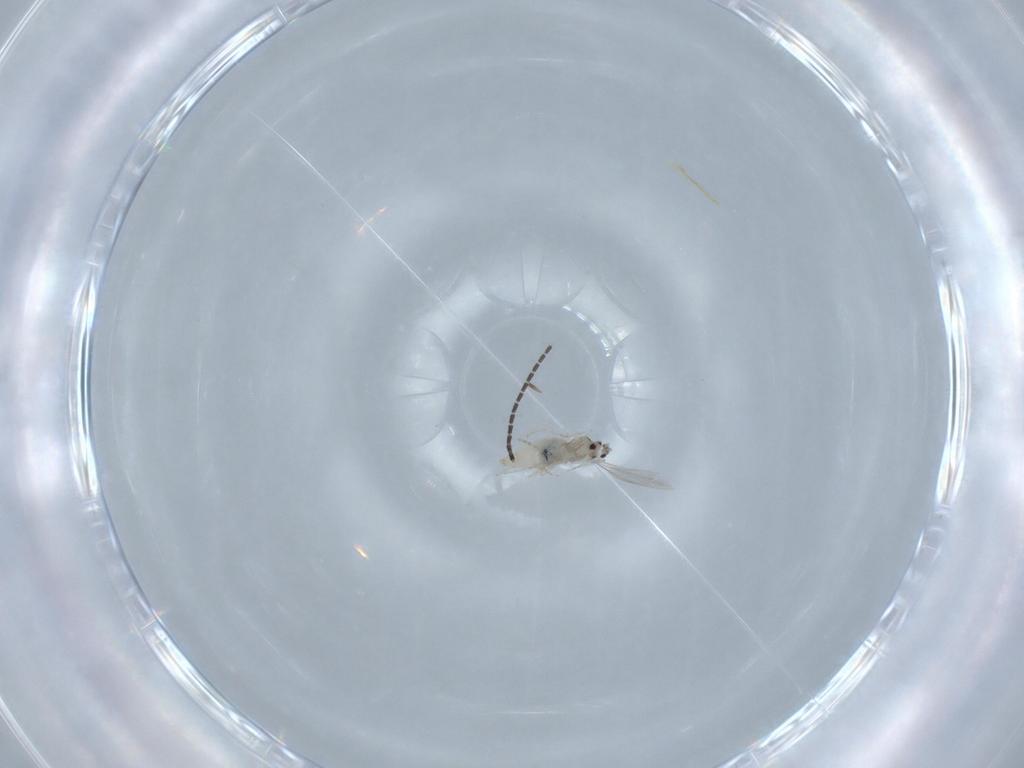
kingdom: Animalia
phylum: Arthropoda
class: Insecta
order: Diptera
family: Sciaridae
